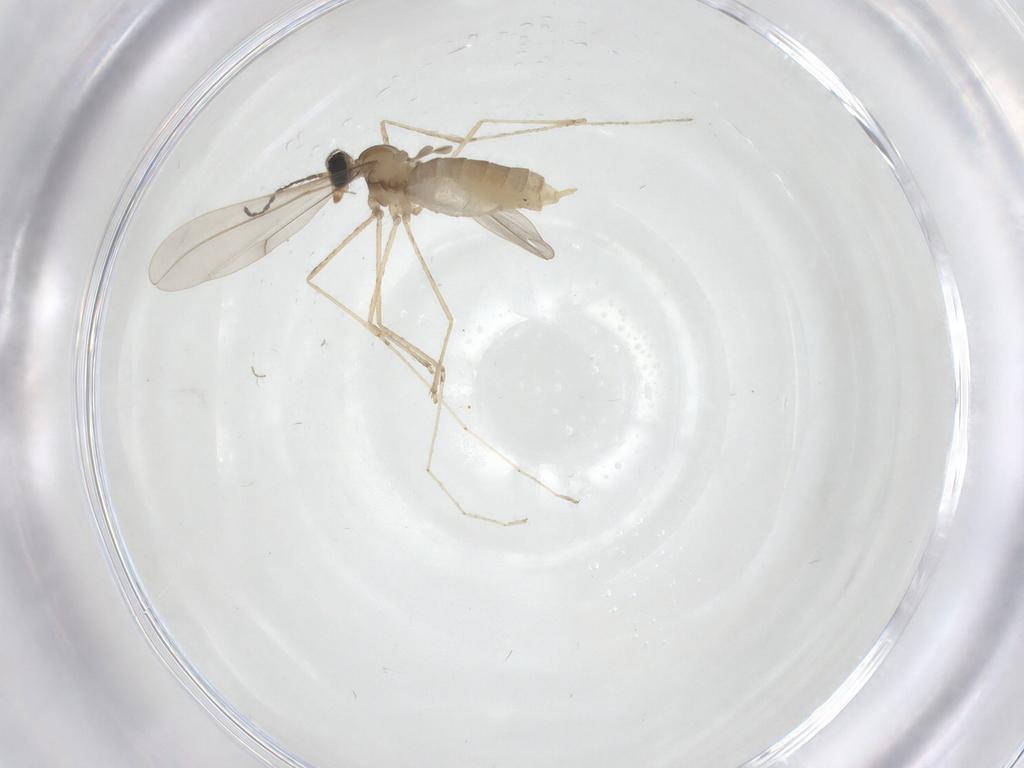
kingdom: Animalia
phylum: Arthropoda
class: Insecta
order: Diptera
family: Cecidomyiidae
